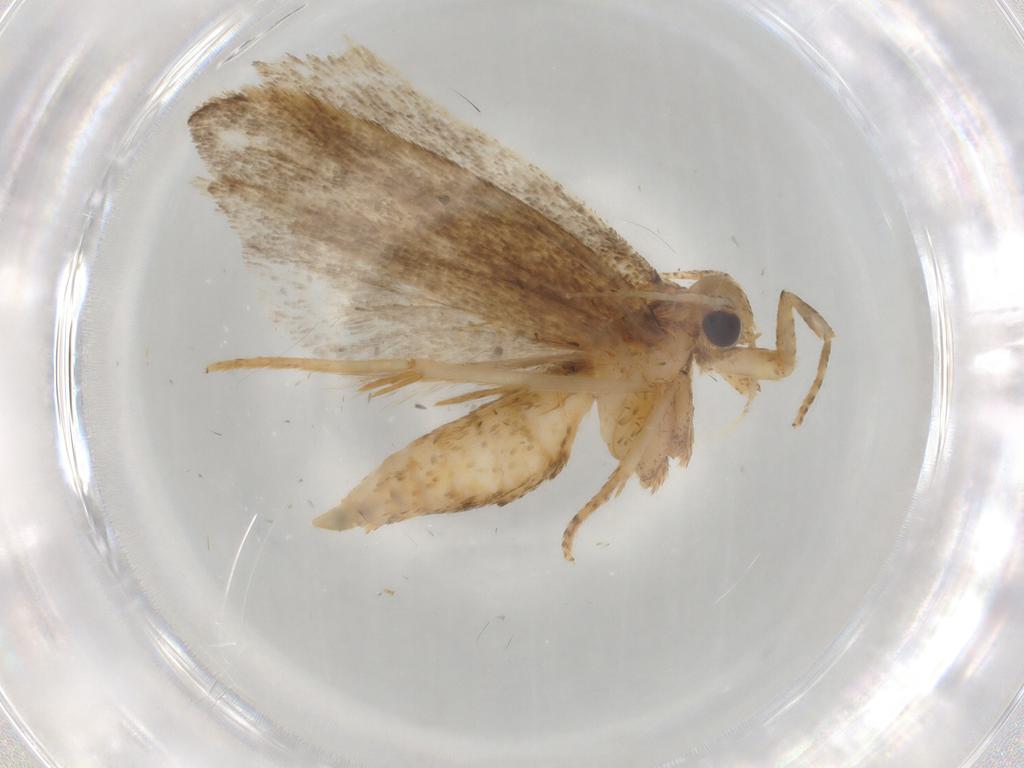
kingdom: Animalia
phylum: Arthropoda
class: Insecta
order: Lepidoptera
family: Autostichidae
